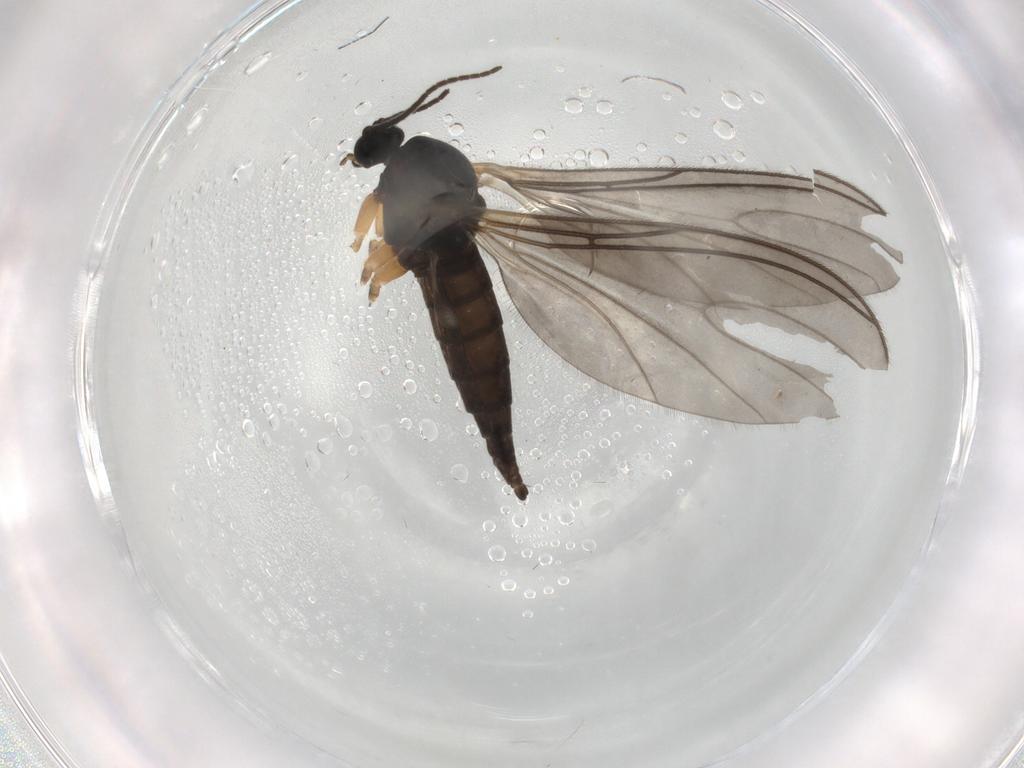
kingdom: Animalia
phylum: Arthropoda
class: Insecta
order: Diptera
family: Sciaridae
